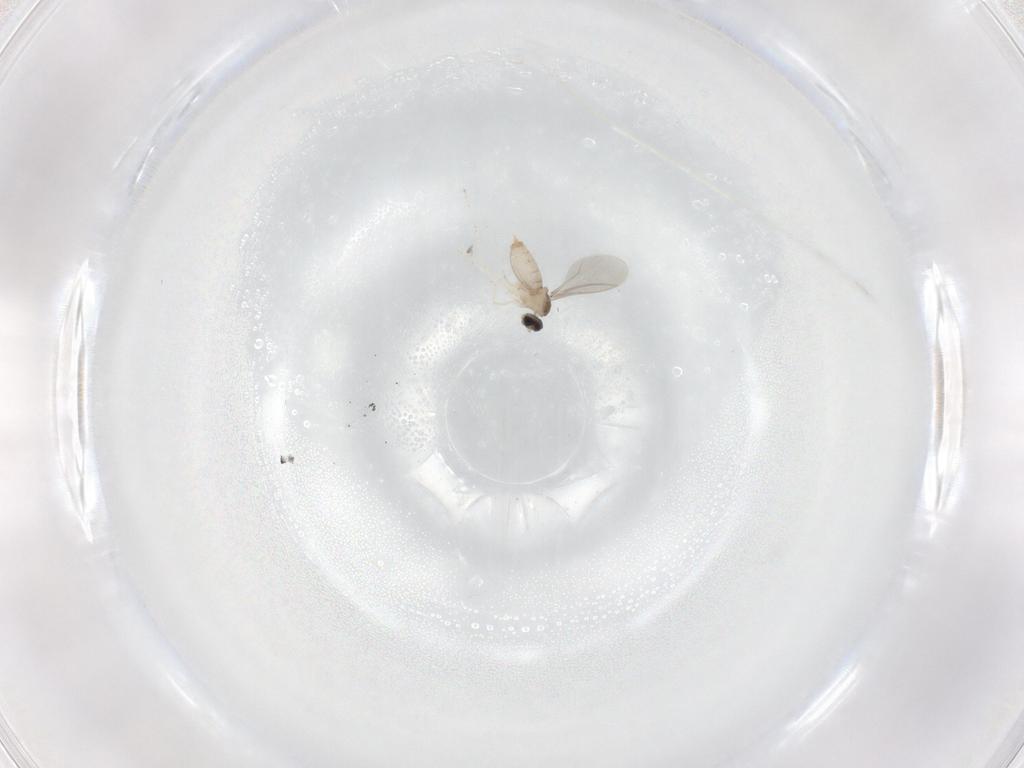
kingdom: Animalia
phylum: Arthropoda
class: Insecta
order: Diptera
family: Cecidomyiidae
